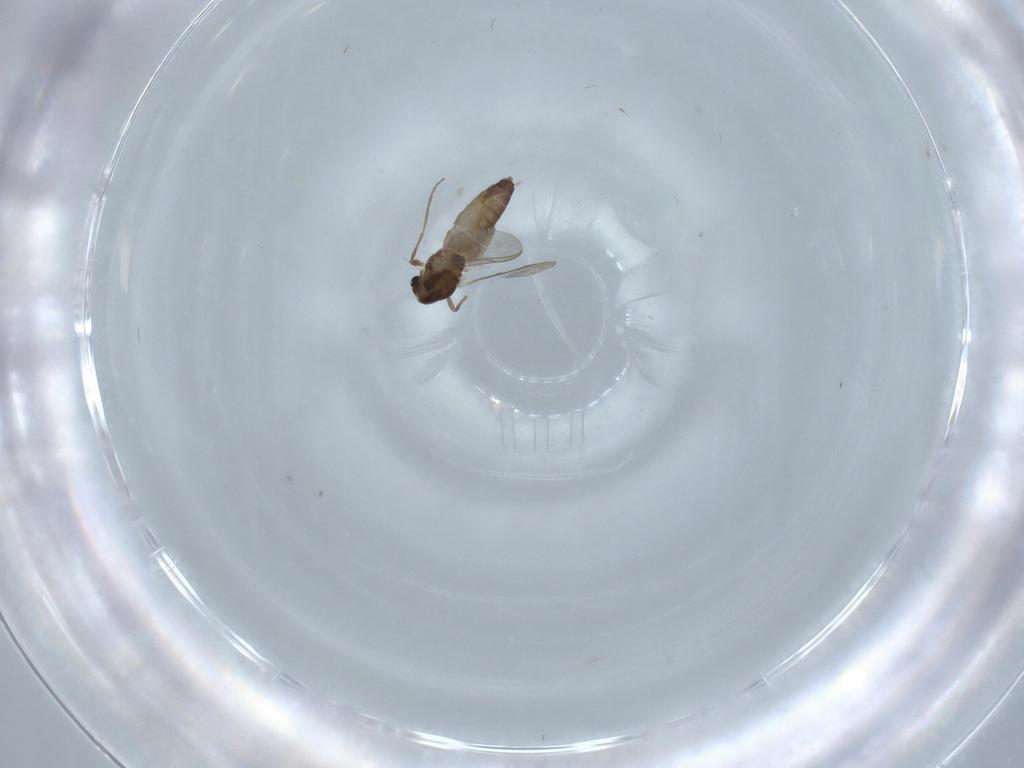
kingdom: Animalia
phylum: Arthropoda
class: Insecta
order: Diptera
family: Chironomidae
